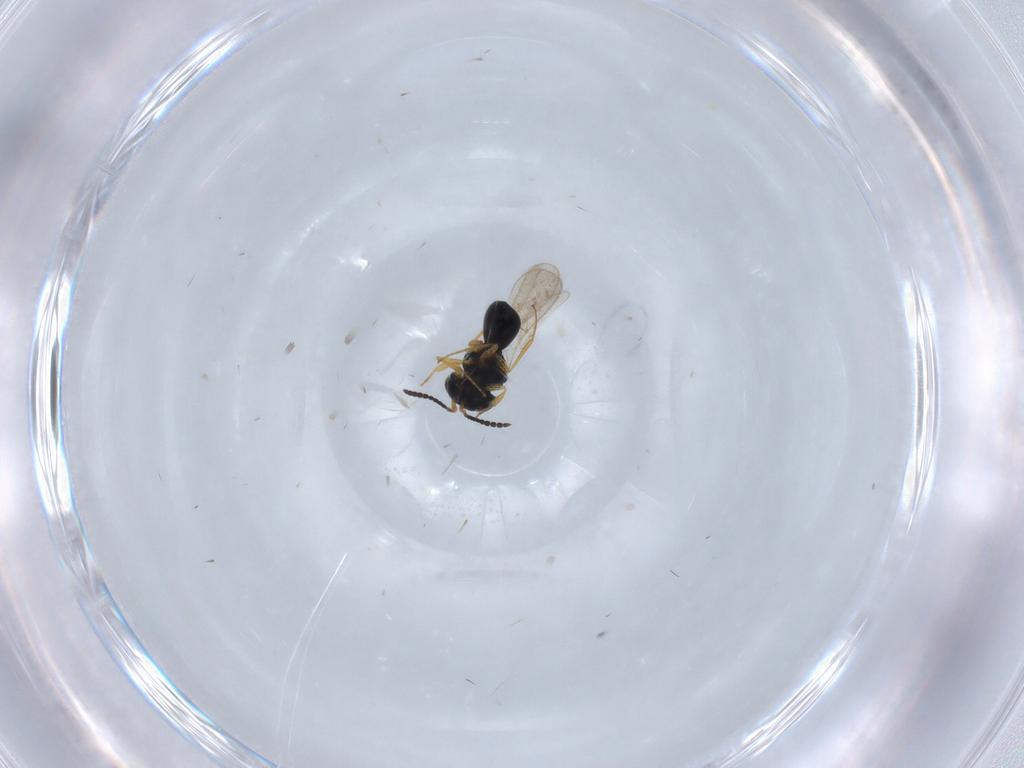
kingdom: Animalia
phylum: Arthropoda
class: Insecta
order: Hymenoptera
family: Scelionidae
